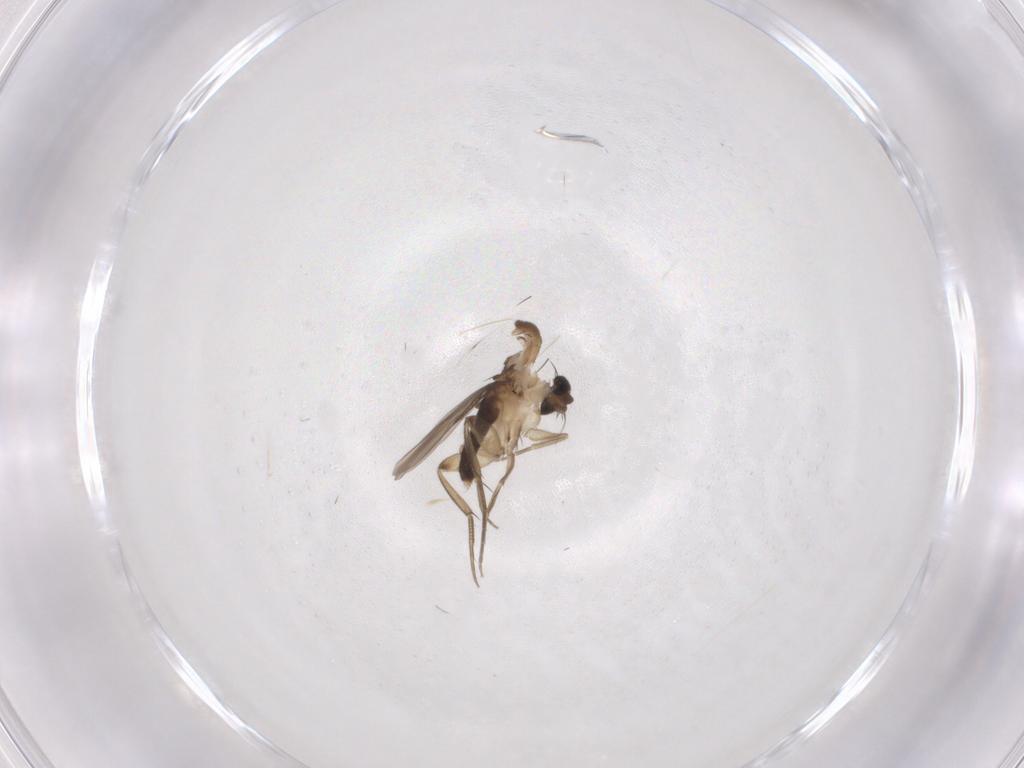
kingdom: Animalia
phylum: Arthropoda
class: Insecta
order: Diptera
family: Phoridae
